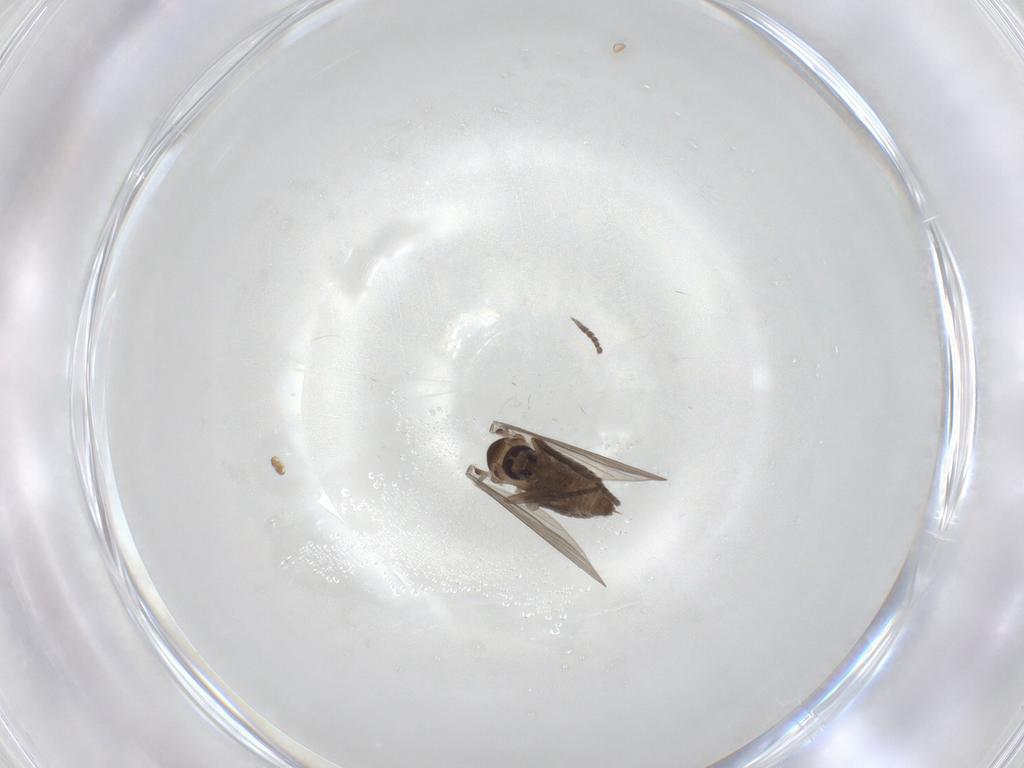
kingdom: Animalia
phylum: Arthropoda
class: Insecta
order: Diptera
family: Psychodidae
